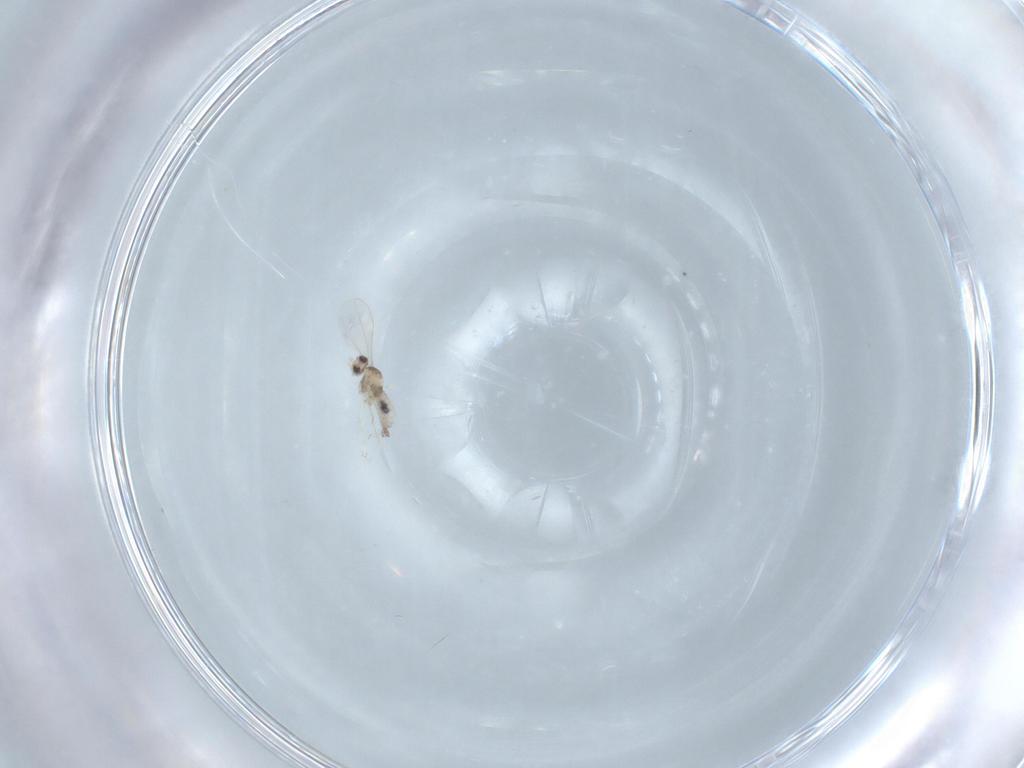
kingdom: Animalia
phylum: Arthropoda
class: Insecta
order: Diptera
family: Cecidomyiidae
